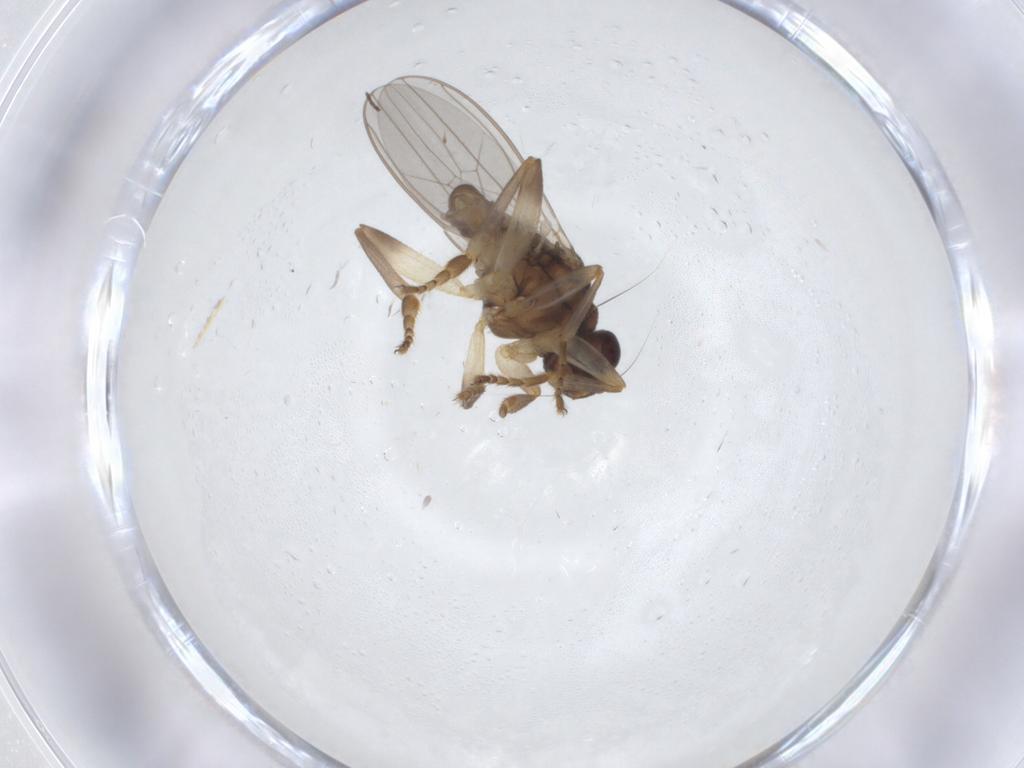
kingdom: Animalia
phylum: Arthropoda
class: Insecta
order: Diptera
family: Sphaeroceridae
